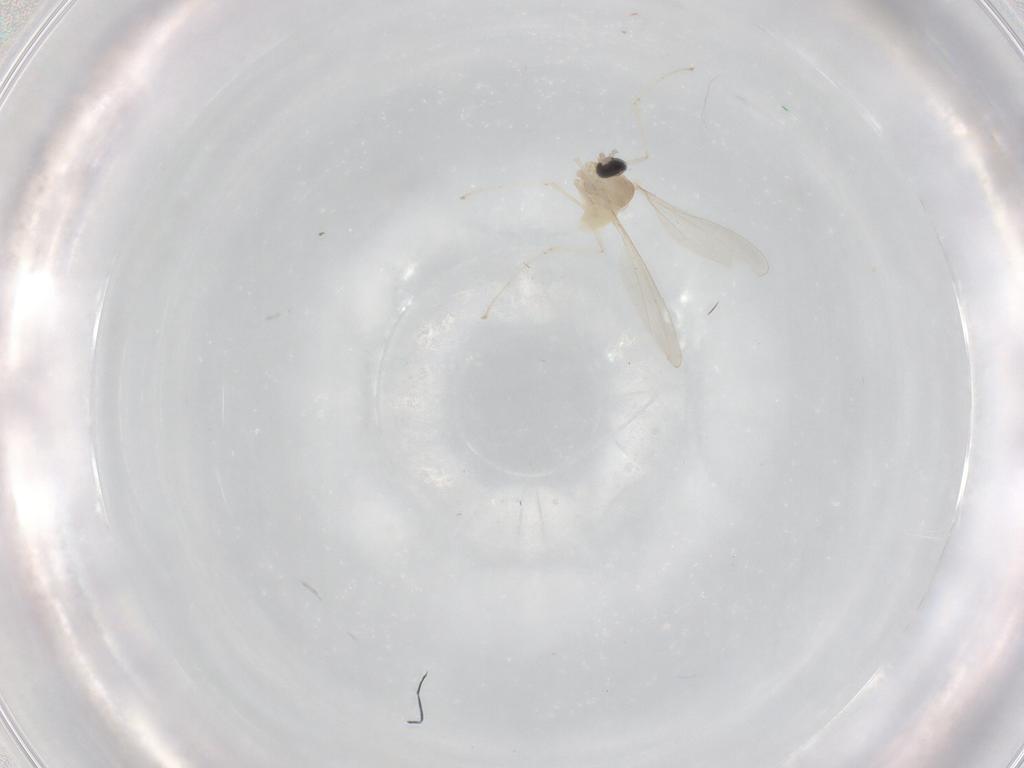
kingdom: Animalia
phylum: Arthropoda
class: Insecta
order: Diptera
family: Cecidomyiidae
